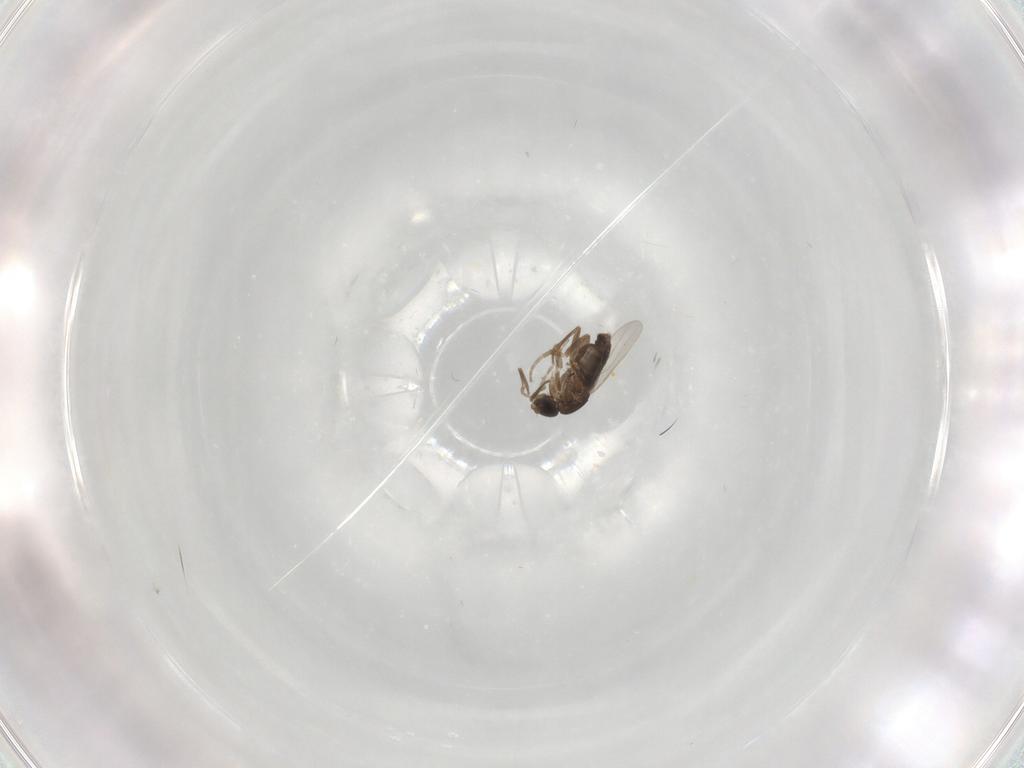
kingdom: Animalia
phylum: Arthropoda
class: Insecta
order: Diptera
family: Phoridae
